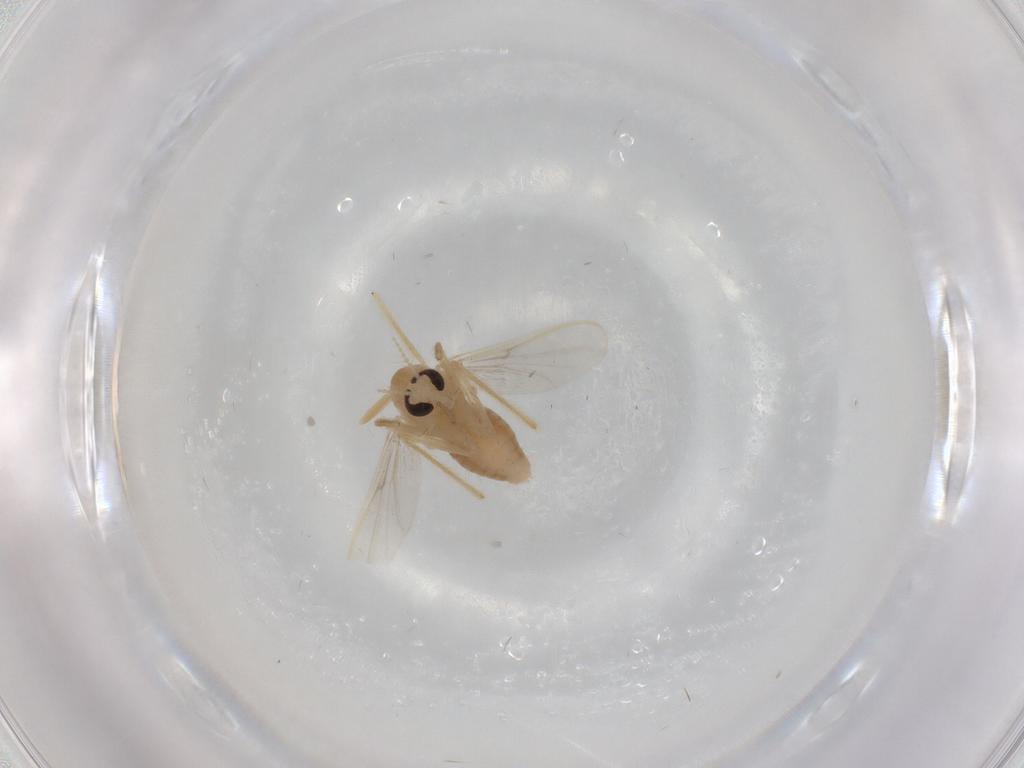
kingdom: Animalia
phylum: Arthropoda
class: Insecta
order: Diptera
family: Chironomidae
